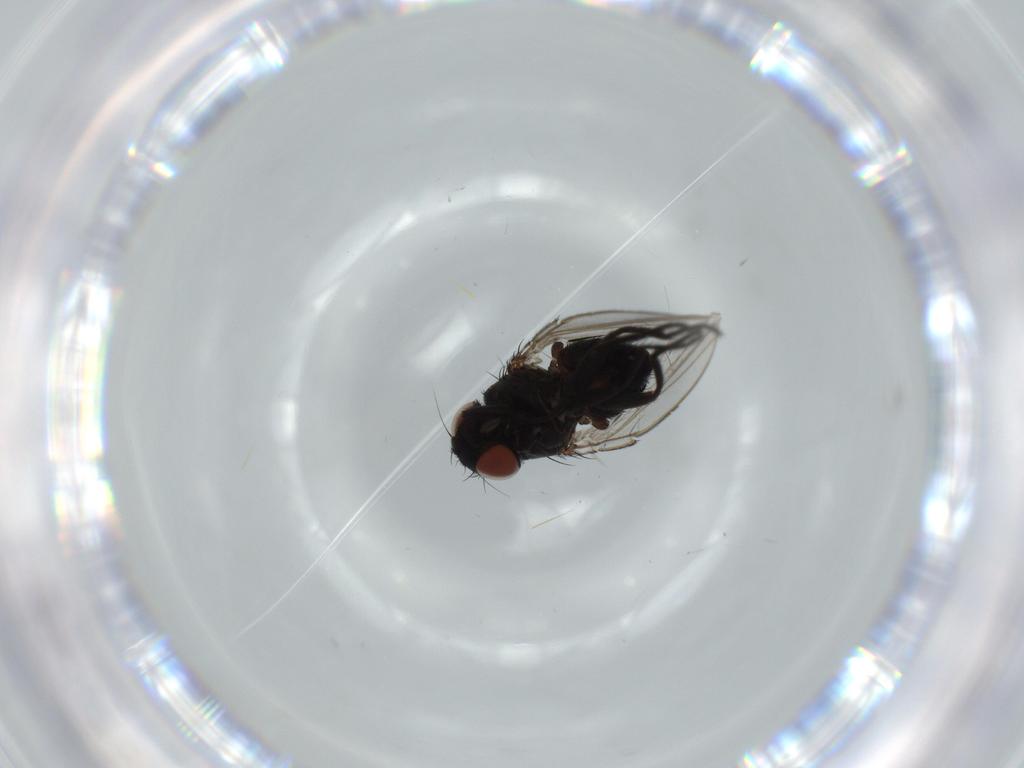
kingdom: Animalia
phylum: Arthropoda
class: Insecta
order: Diptera
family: Milichiidae
